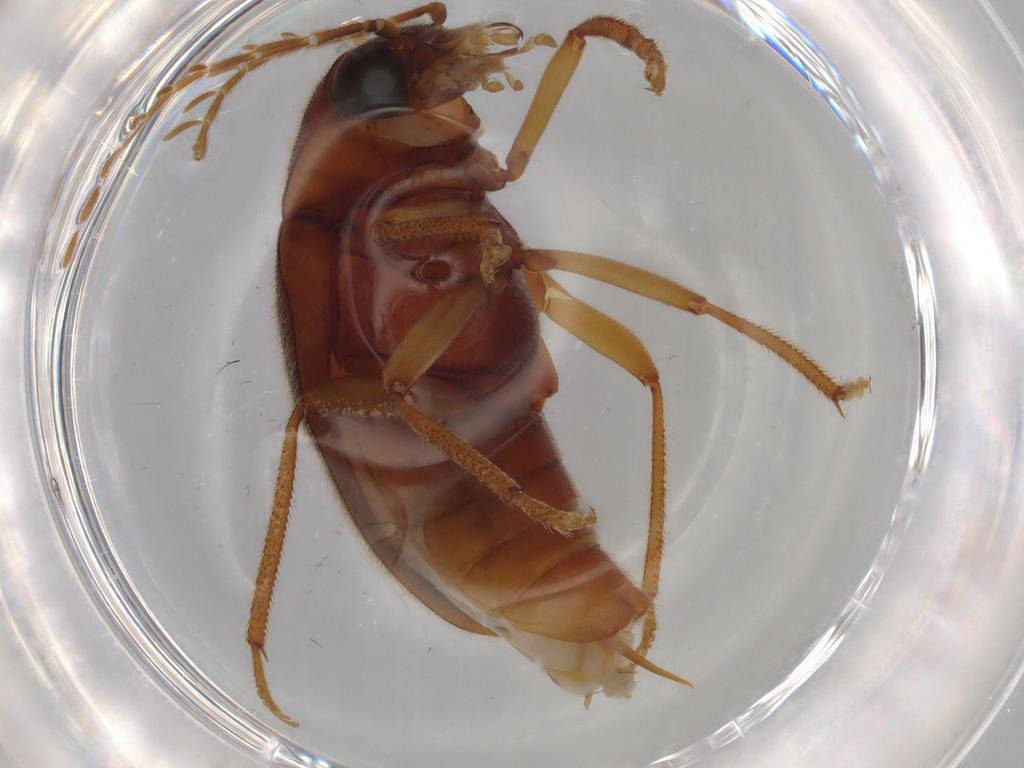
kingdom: Animalia
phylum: Arthropoda
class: Insecta
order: Coleoptera
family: Ptilodactylidae
